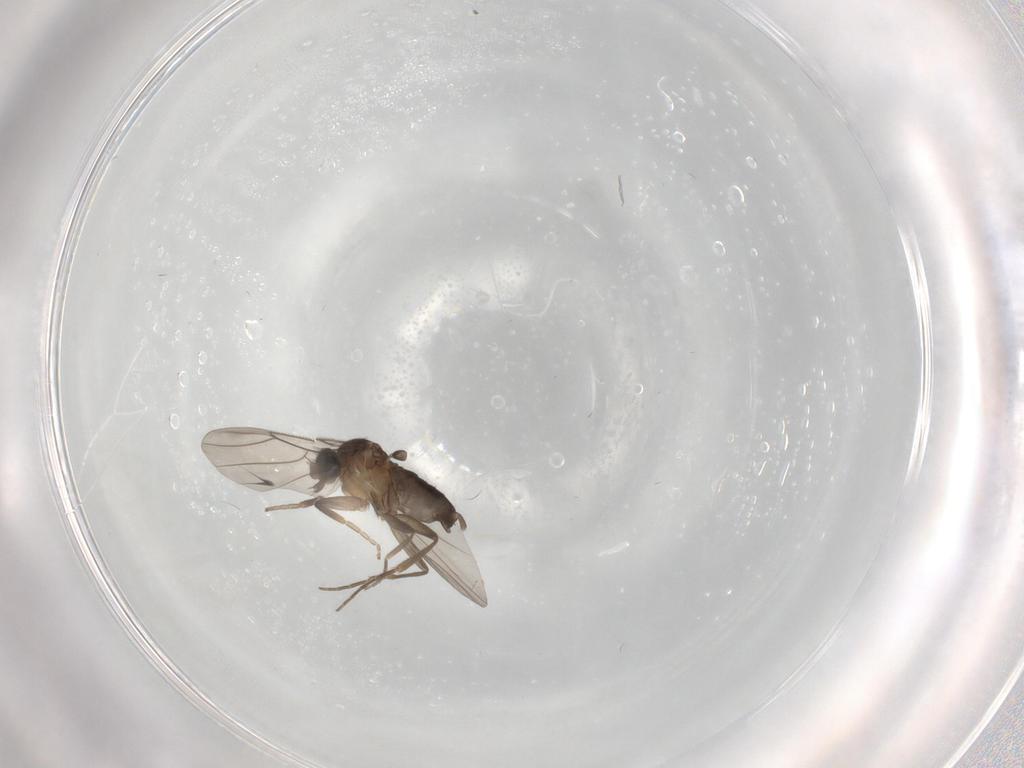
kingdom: Animalia
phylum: Arthropoda
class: Insecta
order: Diptera
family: Phoridae
